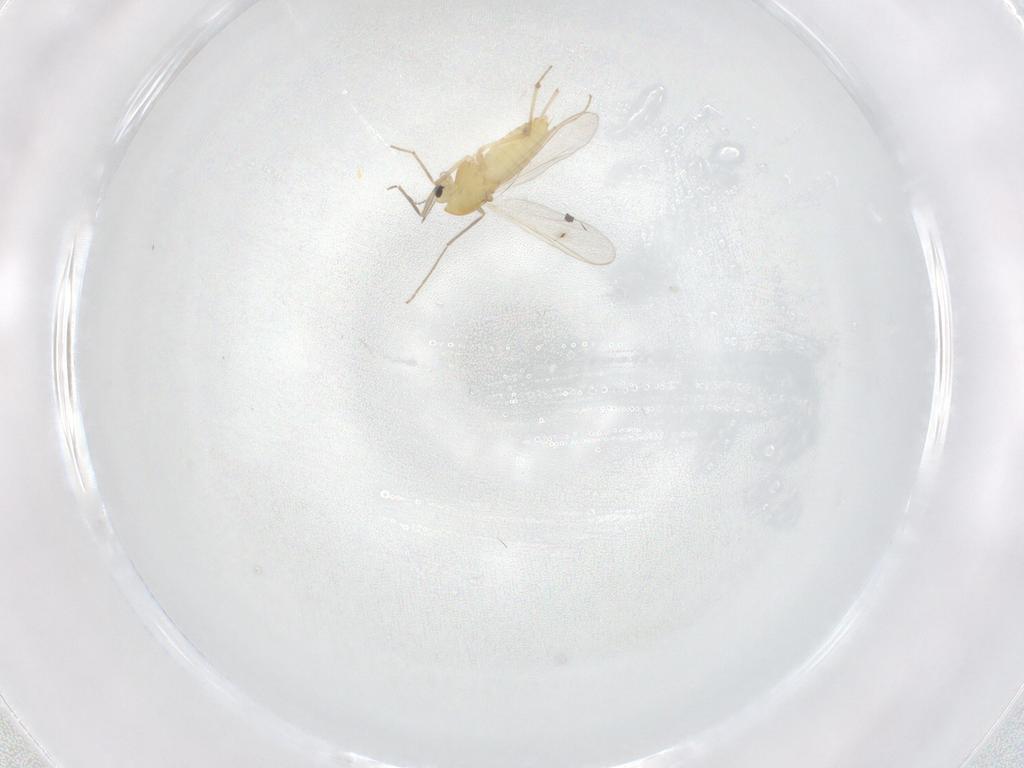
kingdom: Animalia
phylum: Arthropoda
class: Insecta
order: Diptera
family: Chironomidae
